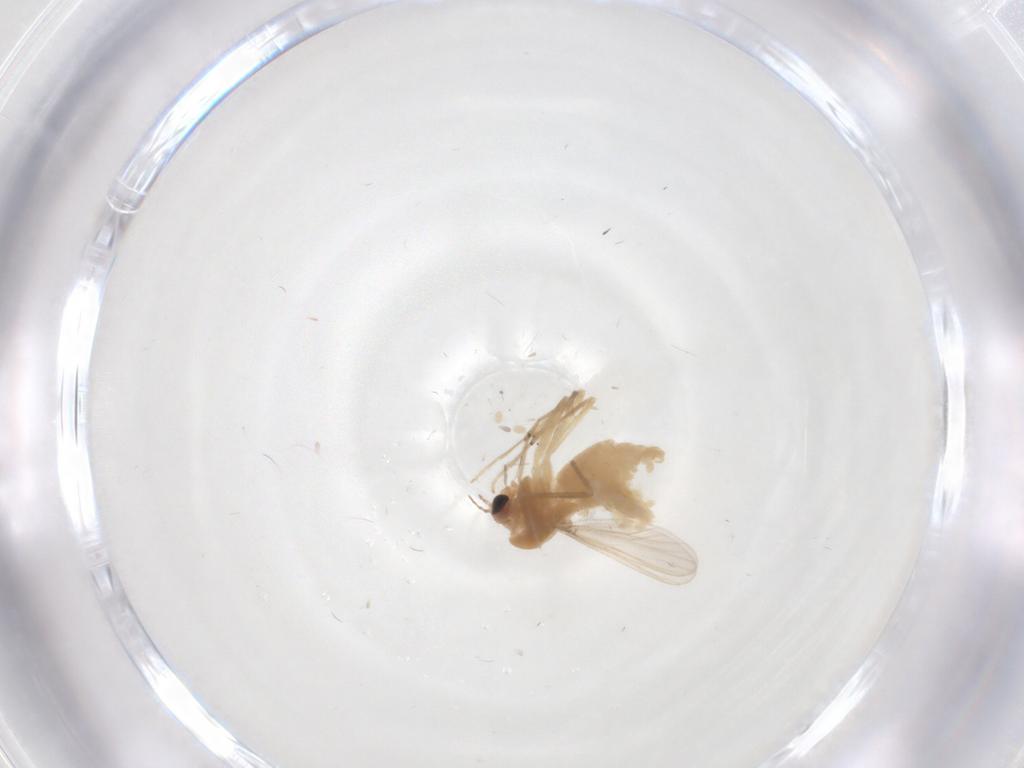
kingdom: Animalia
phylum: Arthropoda
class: Insecta
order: Diptera
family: Chironomidae
